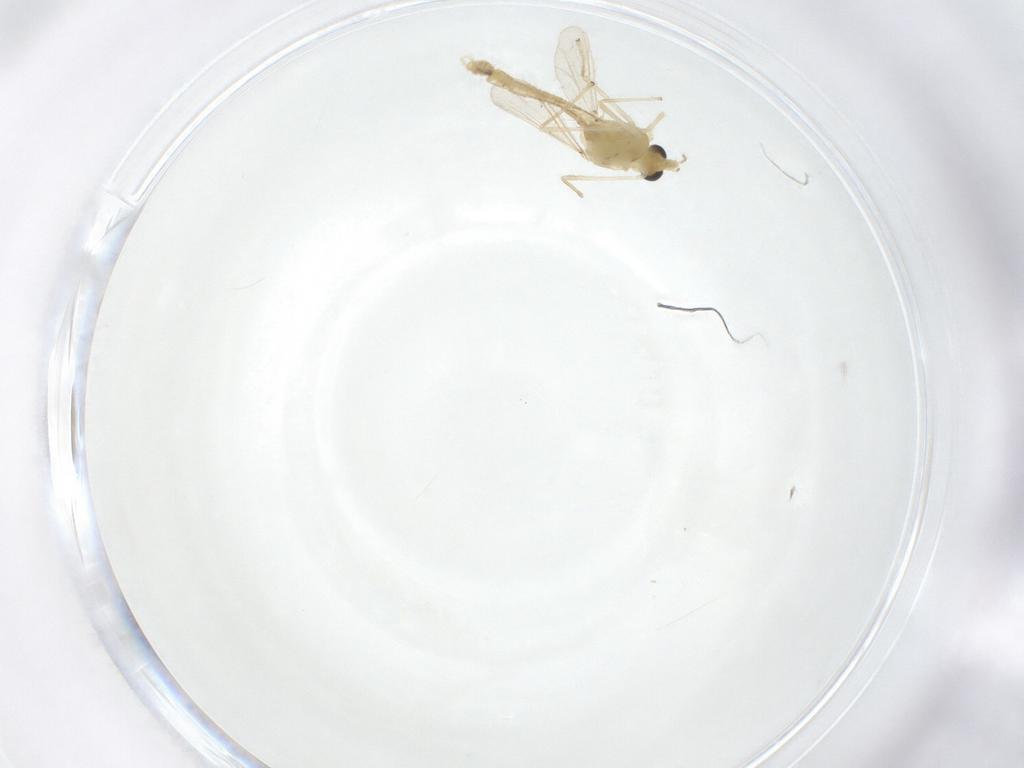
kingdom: Animalia
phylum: Arthropoda
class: Insecta
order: Diptera
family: Chironomidae
